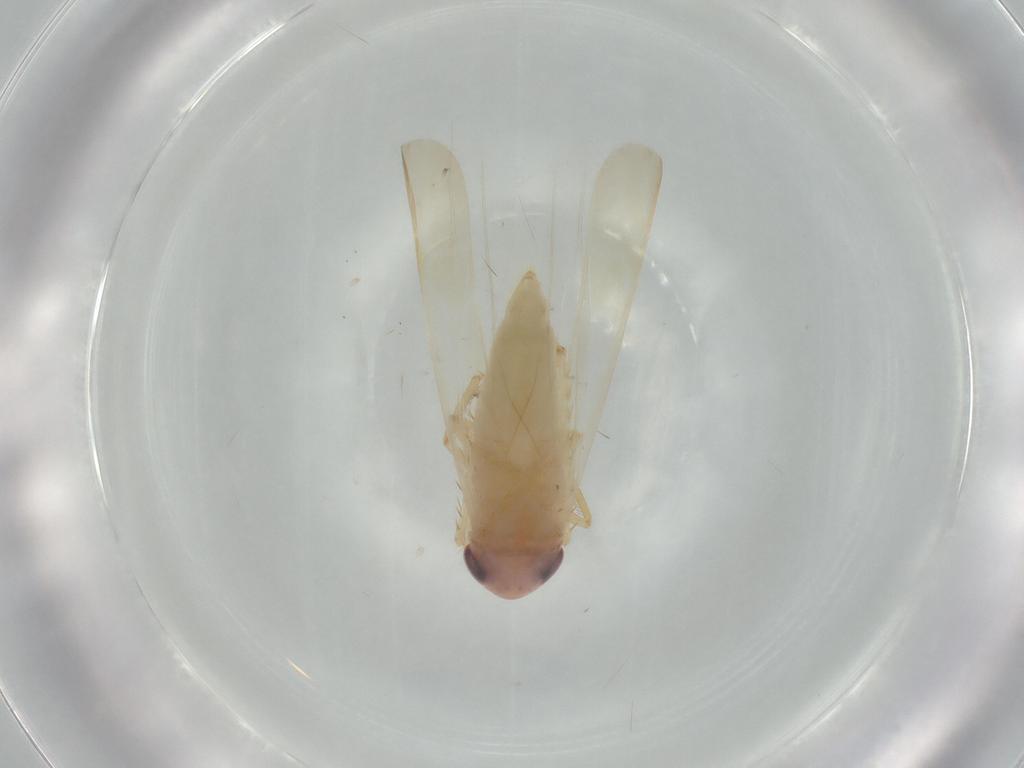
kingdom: Animalia
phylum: Arthropoda
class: Insecta
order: Hemiptera
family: Cicadellidae
